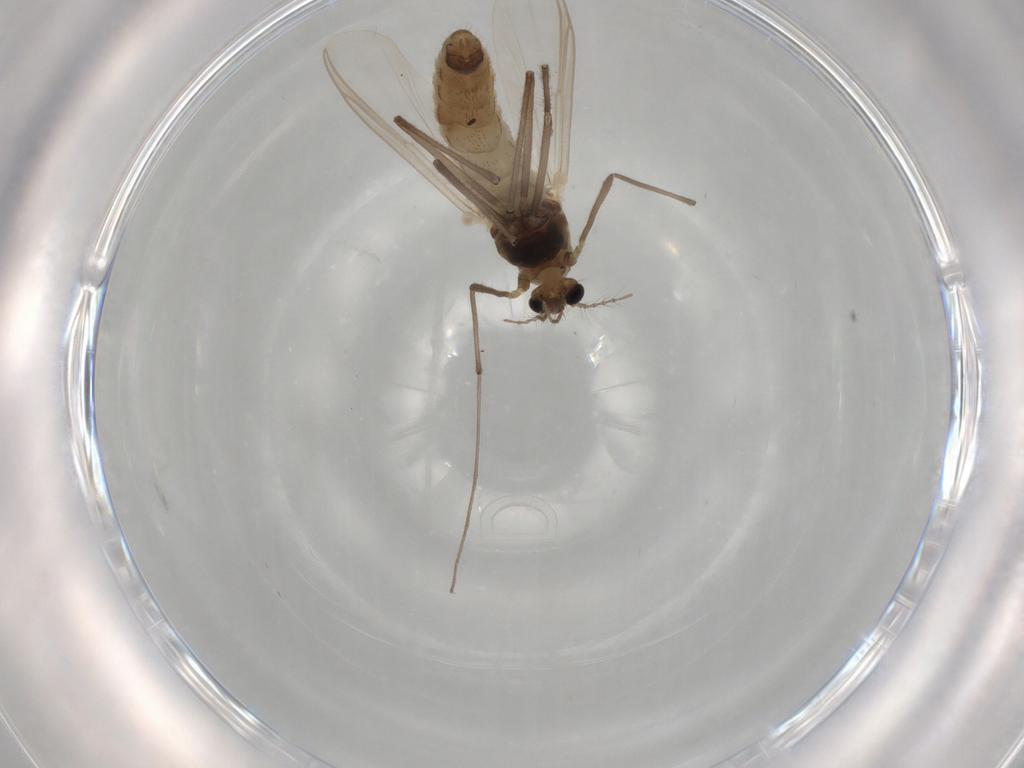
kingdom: Animalia
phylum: Arthropoda
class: Insecta
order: Diptera
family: Chironomidae
